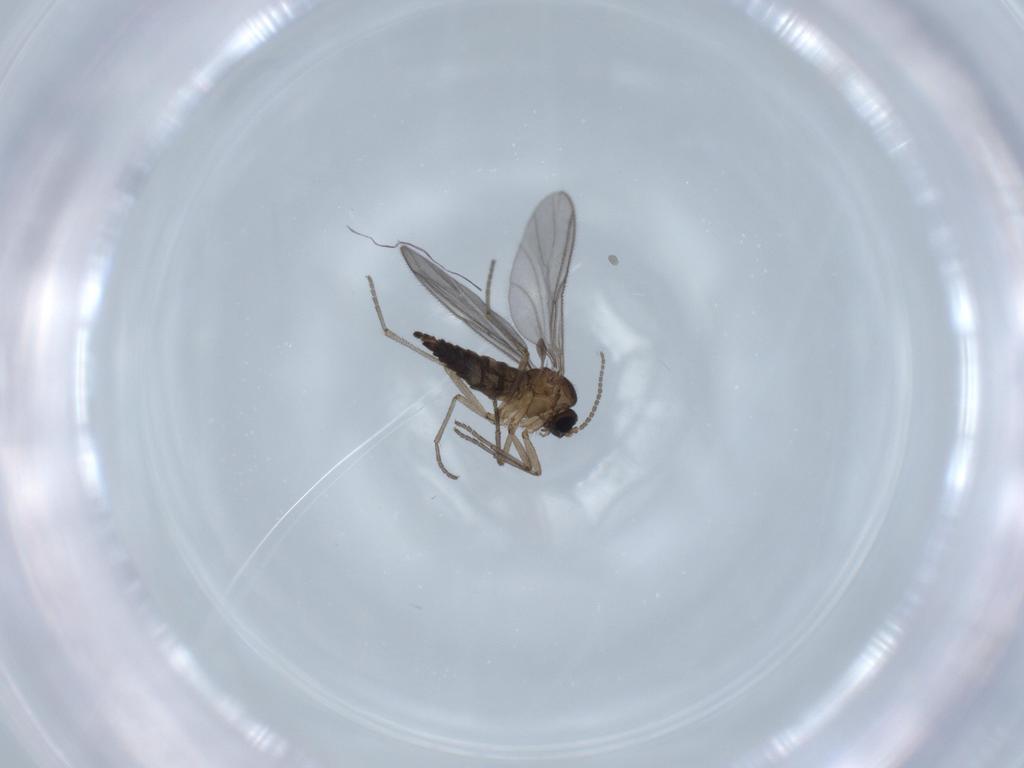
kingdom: Animalia
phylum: Arthropoda
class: Insecta
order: Diptera
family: Sciaridae
